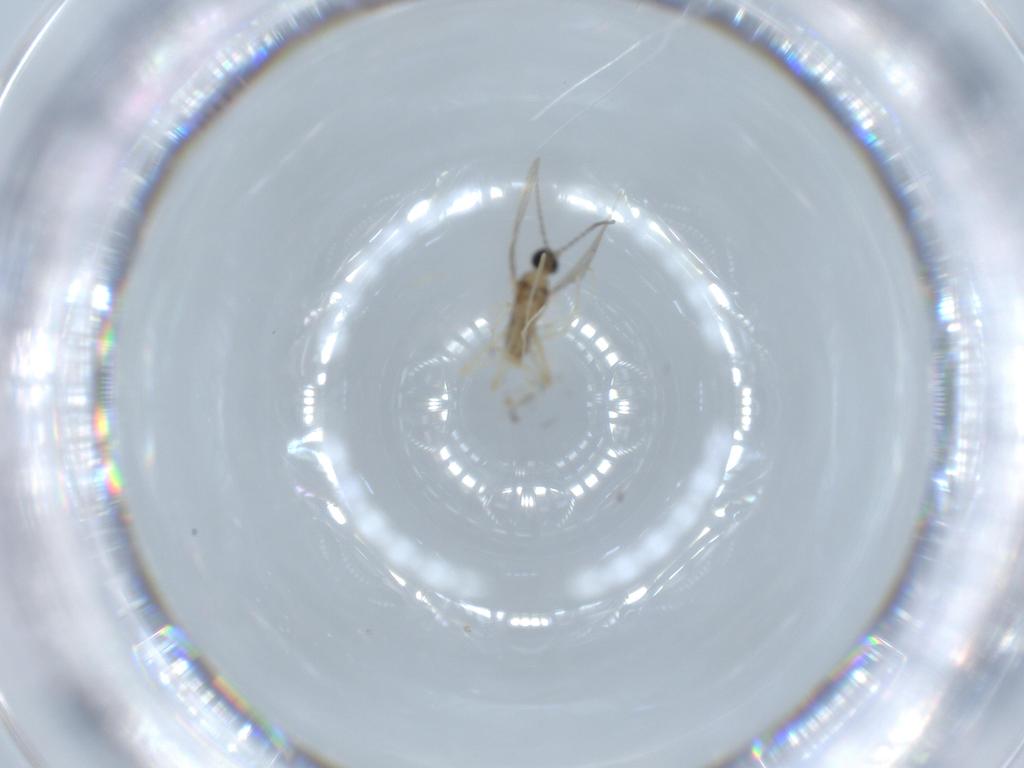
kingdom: Animalia
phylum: Arthropoda
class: Insecta
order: Diptera
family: Cecidomyiidae
